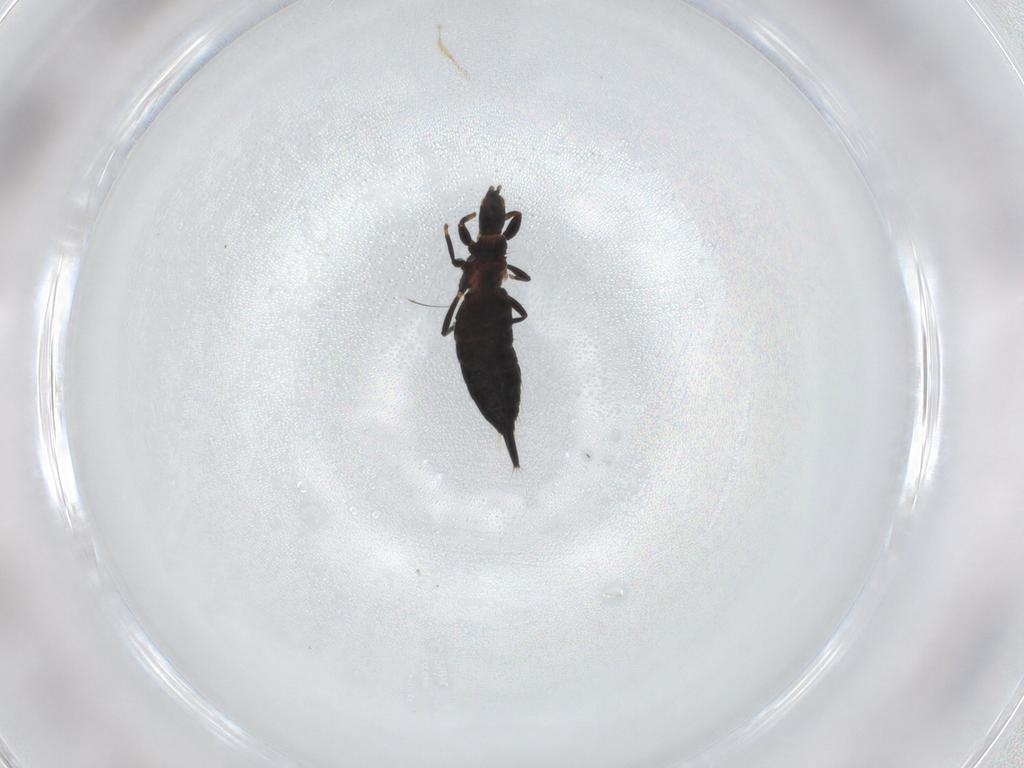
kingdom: Animalia
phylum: Arthropoda
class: Insecta
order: Thysanoptera
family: Phlaeothripidae
